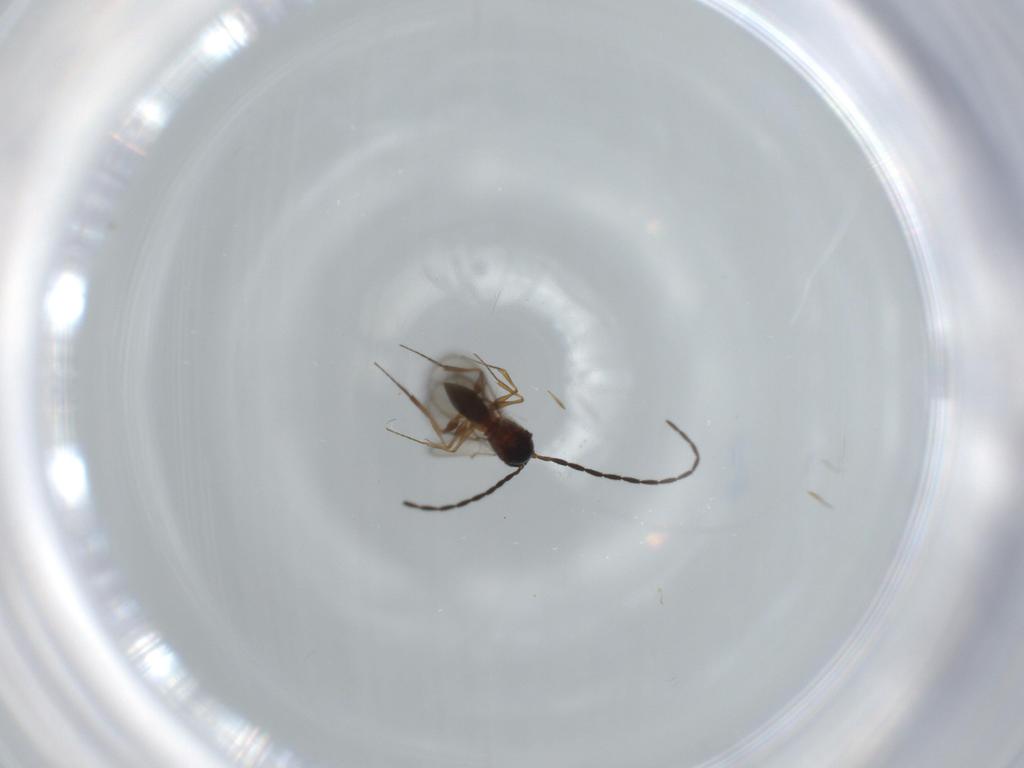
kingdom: Animalia
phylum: Arthropoda
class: Insecta
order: Hymenoptera
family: Figitidae
